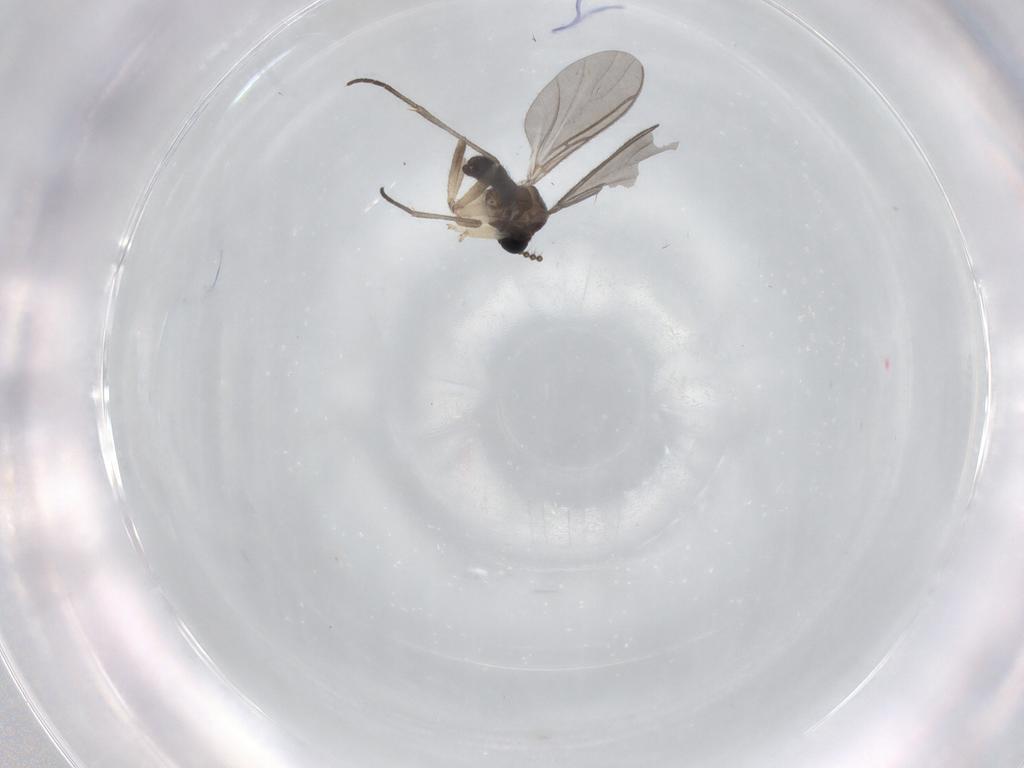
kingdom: Animalia
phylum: Arthropoda
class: Insecta
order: Diptera
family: Sciaridae
